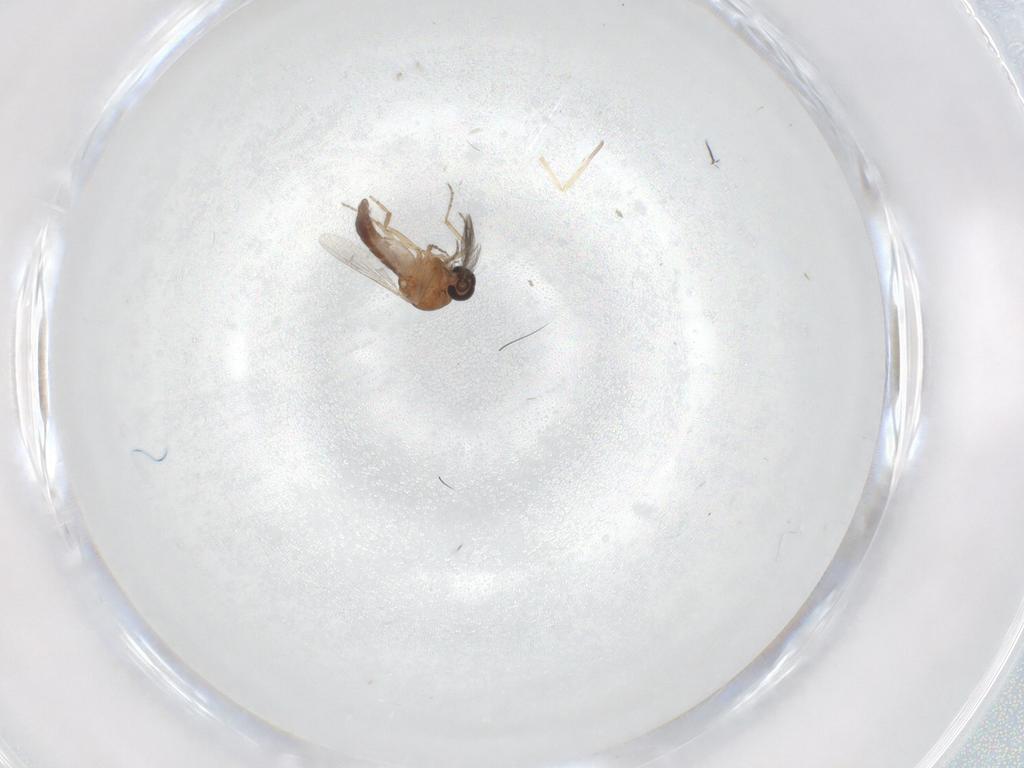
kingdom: Animalia
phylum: Arthropoda
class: Insecta
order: Diptera
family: Ceratopogonidae
